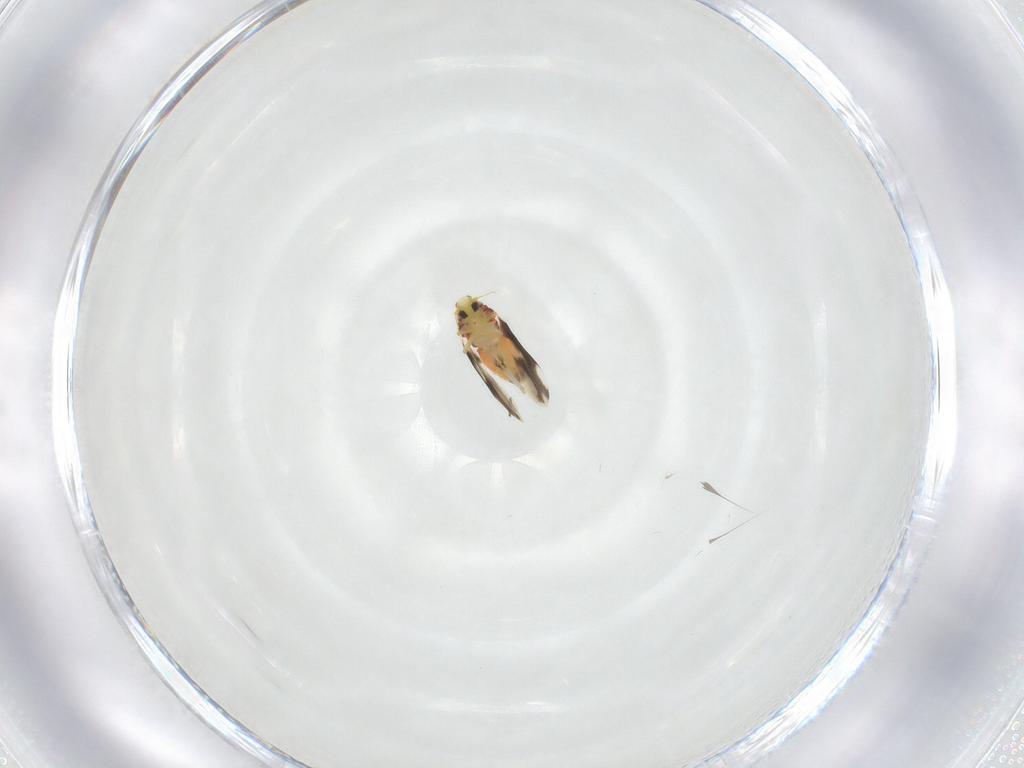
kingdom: Animalia
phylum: Arthropoda
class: Insecta
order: Hemiptera
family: Aleyrodidae
